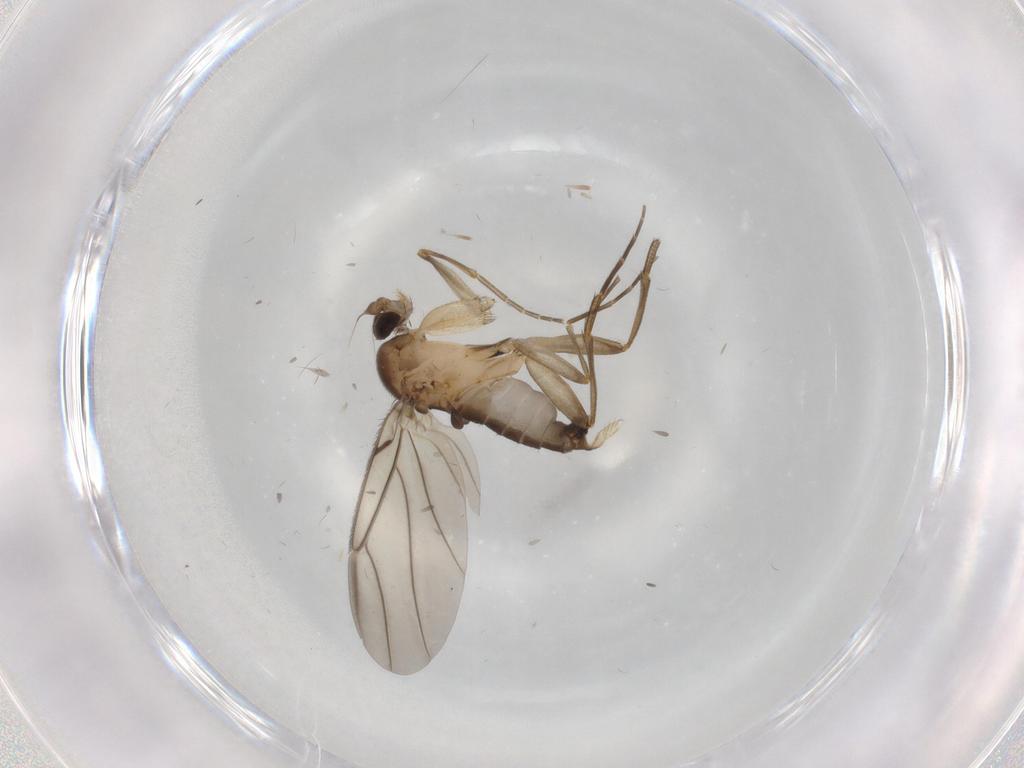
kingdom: Animalia
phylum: Arthropoda
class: Insecta
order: Diptera
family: Phoridae
